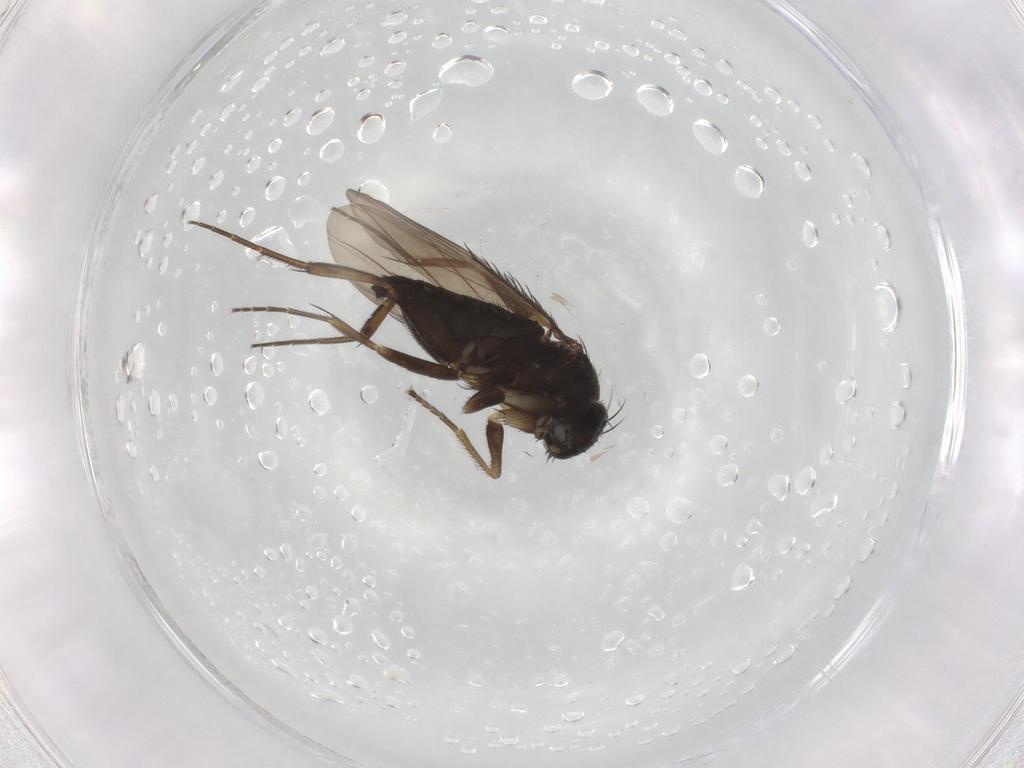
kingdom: Animalia
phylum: Arthropoda
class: Insecta
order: Diptera
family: Phoridae
